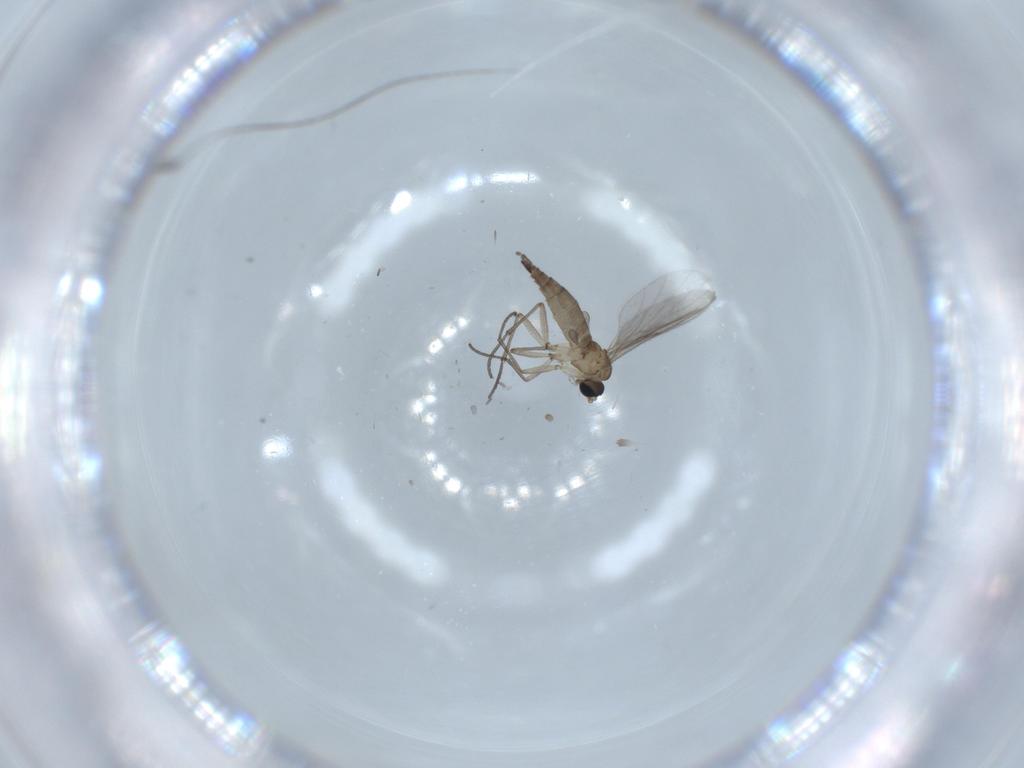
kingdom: Animalia
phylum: Arthropoda
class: Insecta
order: Diptera
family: Sciaridae
